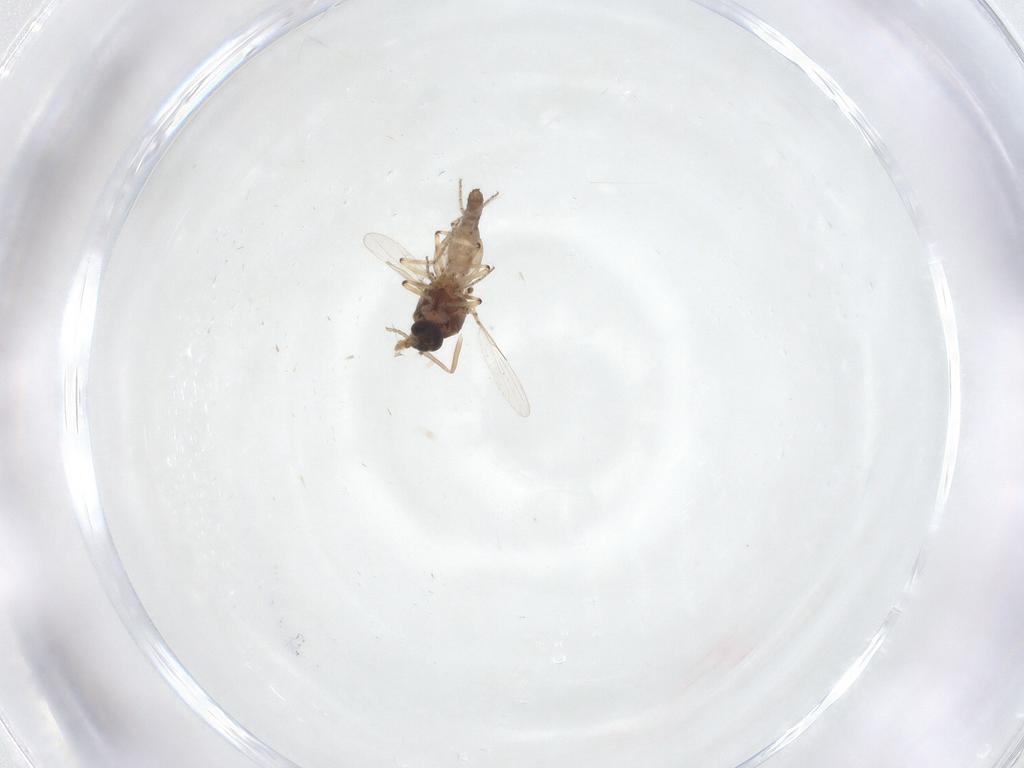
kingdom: Animalia
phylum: Arthropoda
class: Insecta
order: Diptera
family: Ceratopogonidae
